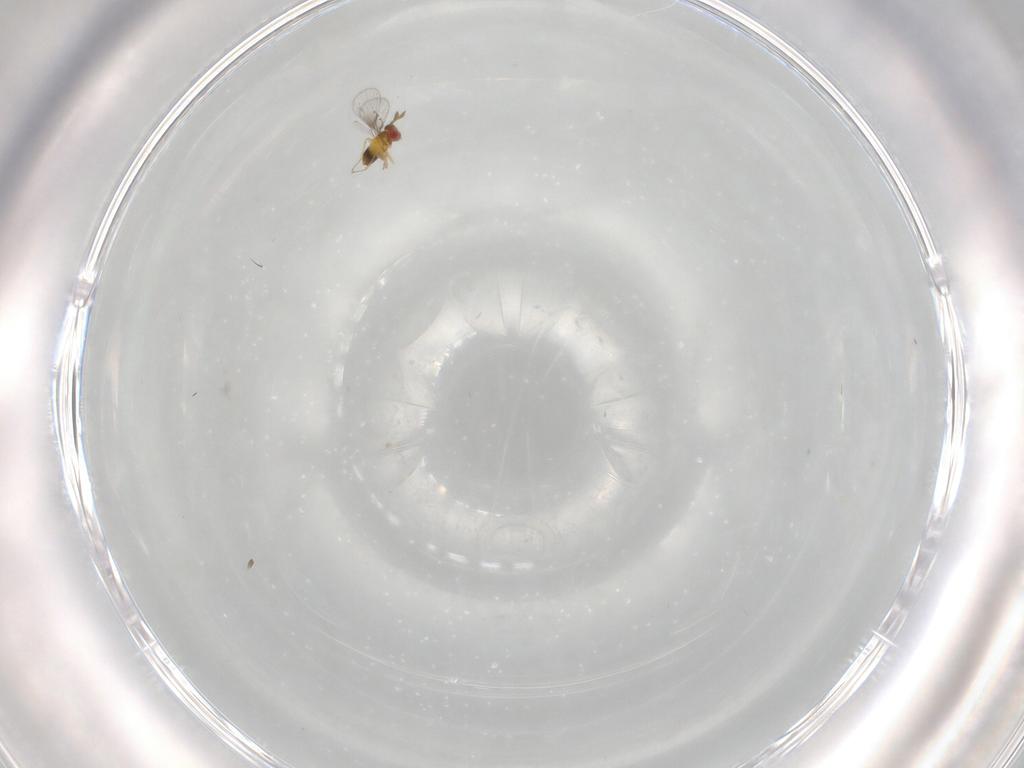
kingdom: Animalia
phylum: Arthropoda
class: Insecta
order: Hymenoptera
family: Trichogrammatidae
